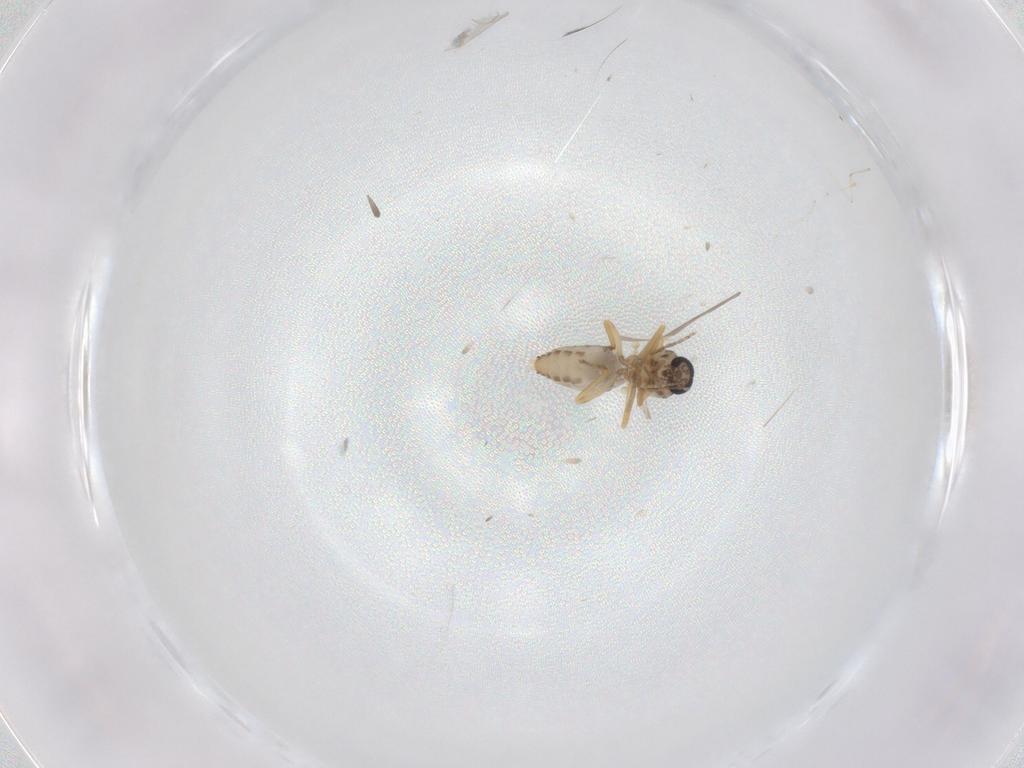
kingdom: Animalia
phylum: Arthropoda
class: Insecta
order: Diptera
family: Ceratopogonidae
